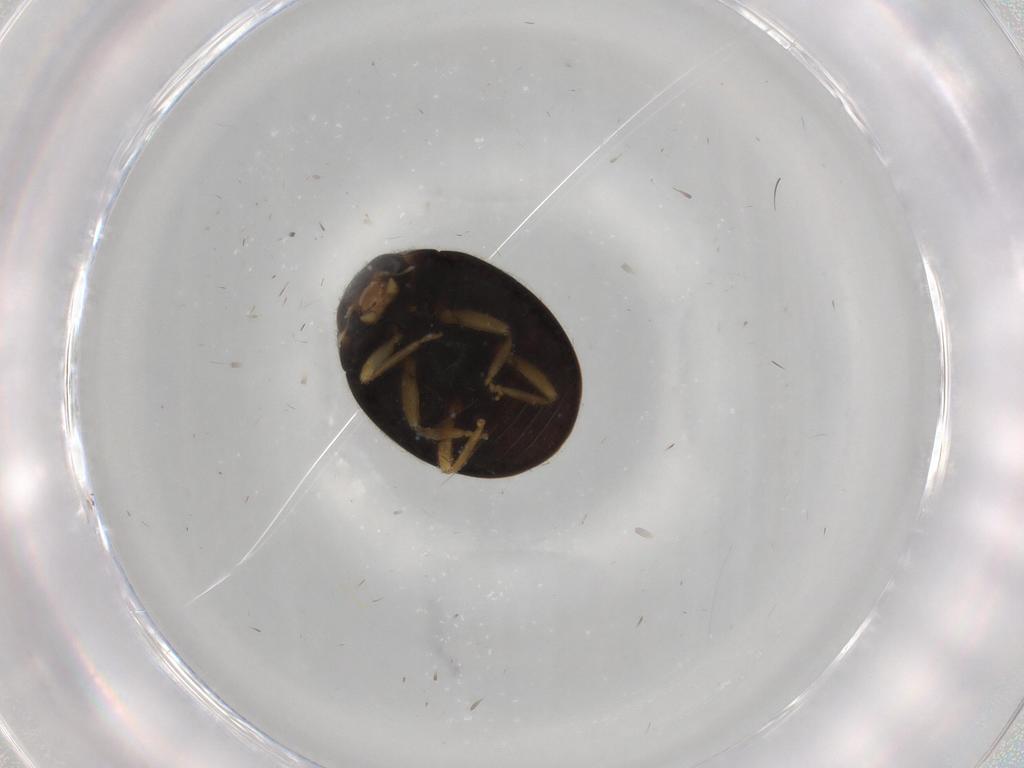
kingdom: Animalia
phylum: Arthropoda
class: Insecta
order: Coleoptera
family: Coccinellidae
